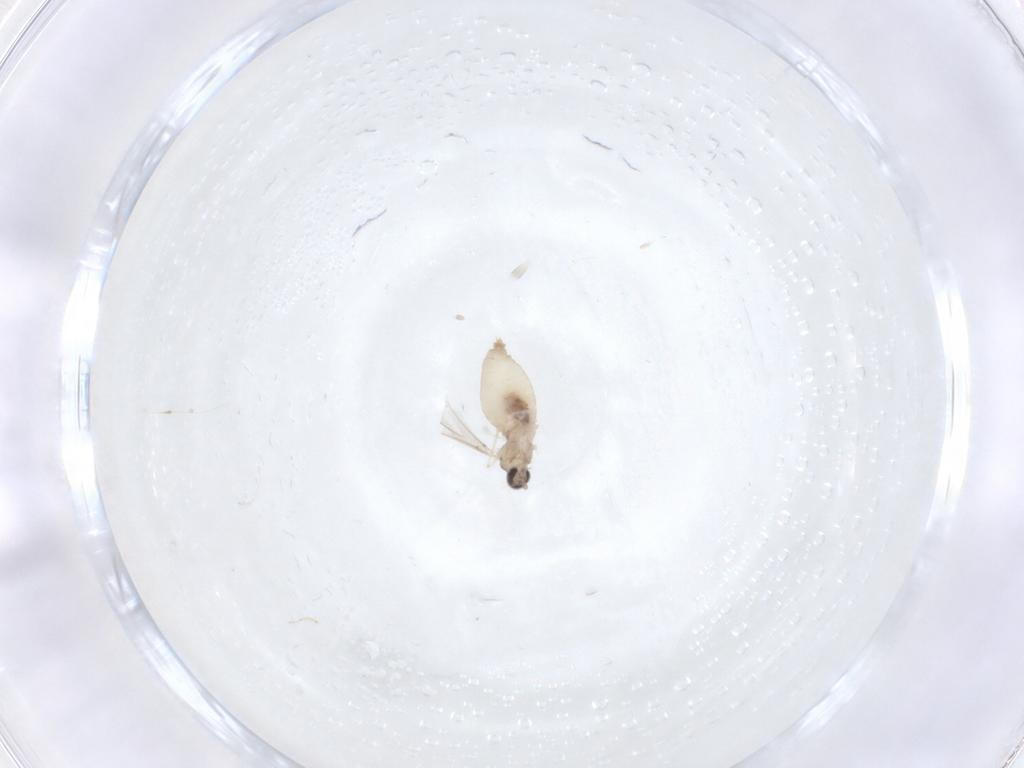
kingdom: Animalia
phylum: Arthropoda
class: Insecta
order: Diptera
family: Cecidomyiidae
